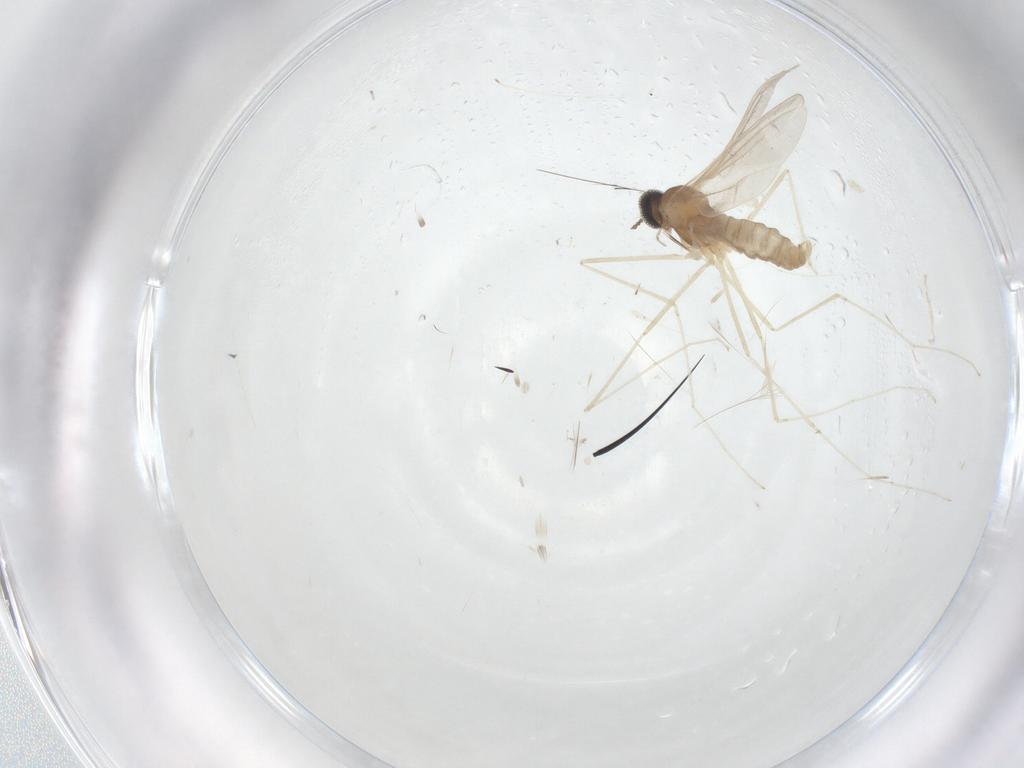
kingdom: Animalia
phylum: Arthropoda
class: Insecta
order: Diptera
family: Cecidomyiidae
